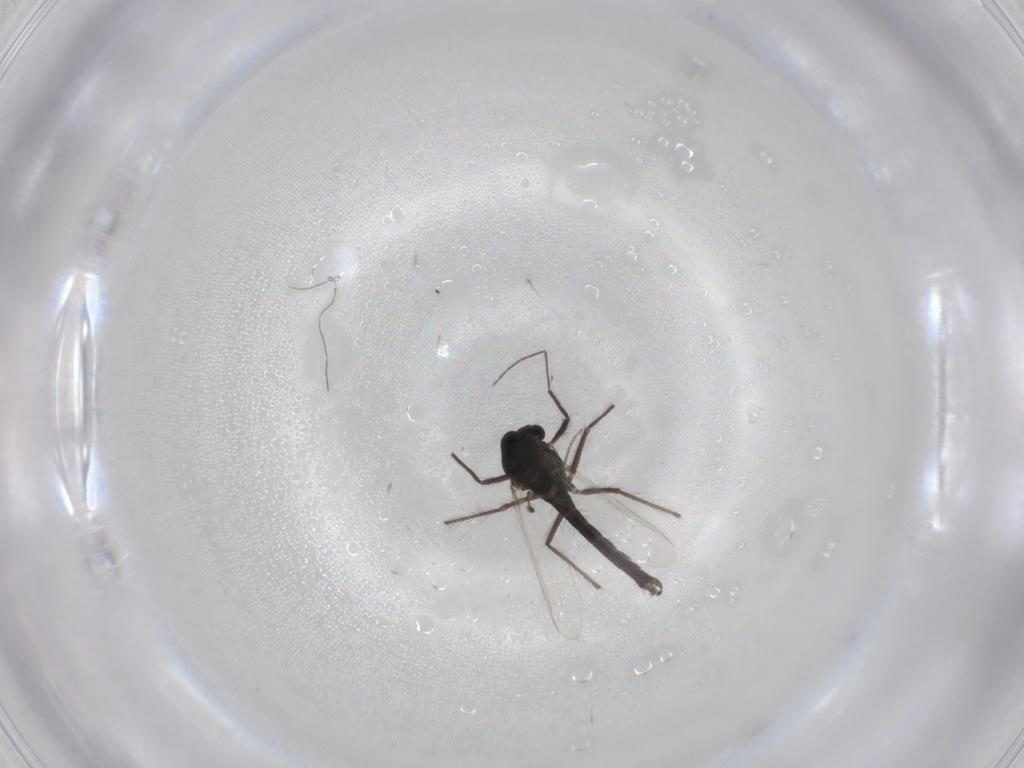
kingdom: Animalia
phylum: Arthropoda
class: Insecta
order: Diptera
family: Chironomidae
